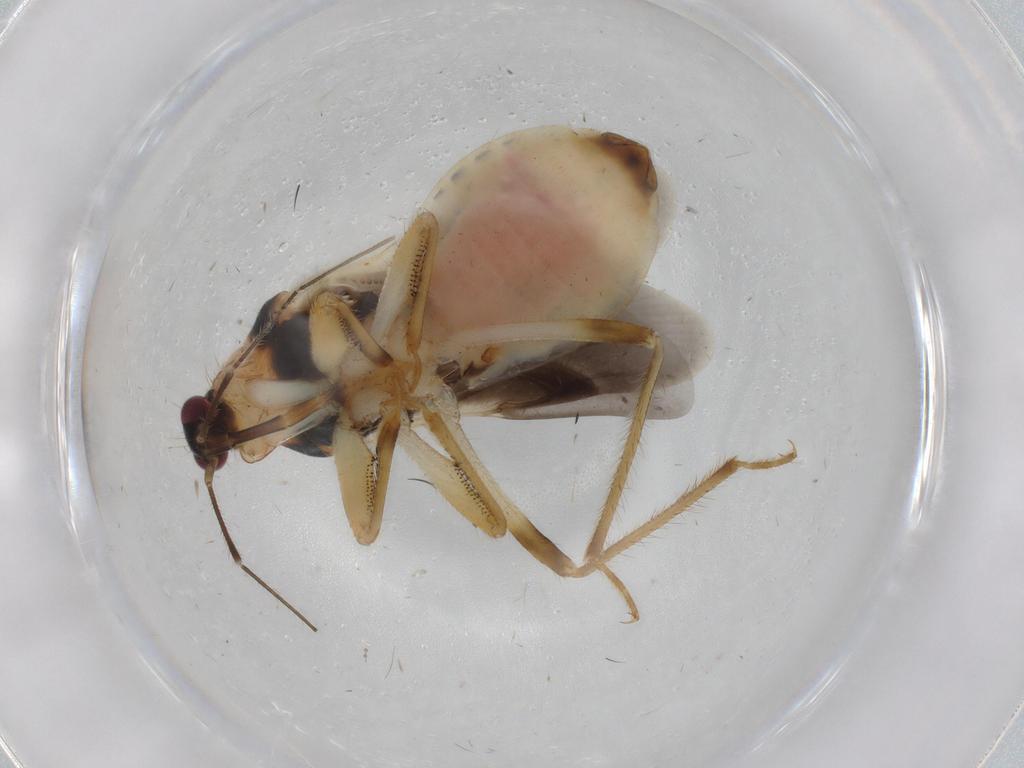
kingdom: Animalia
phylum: Arthropoda
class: Insecta
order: Hemiptera
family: Nabidae
